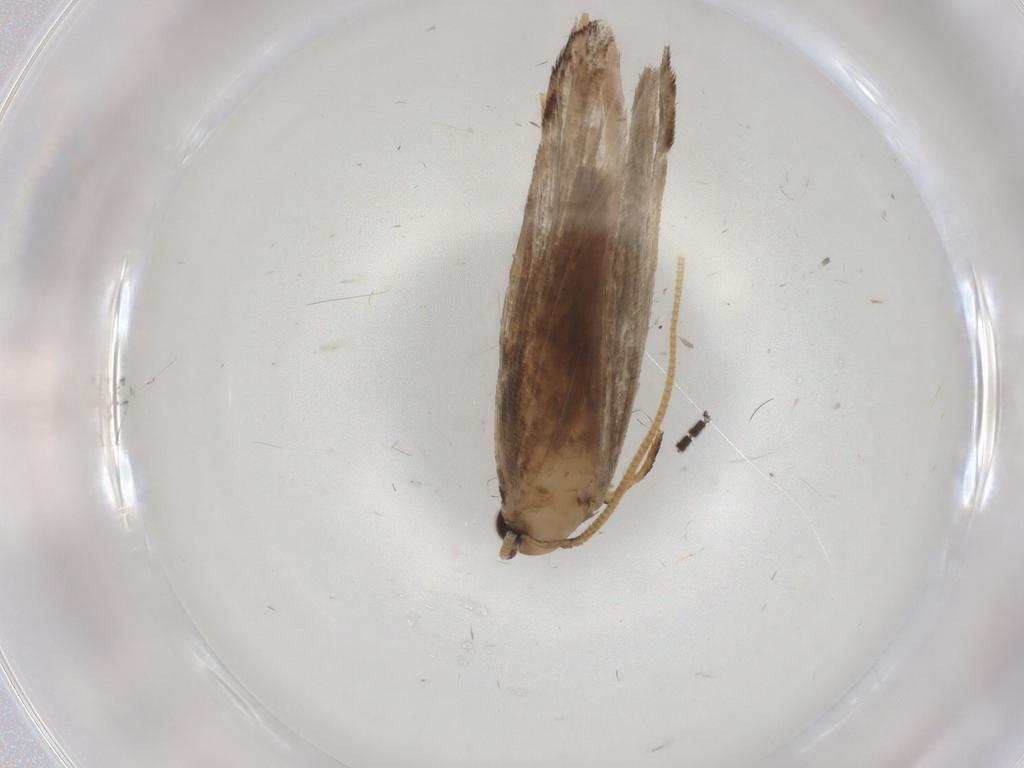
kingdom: Animalia
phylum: Arthropoda
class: Insecta
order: Lepidoptera
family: Tineidae
